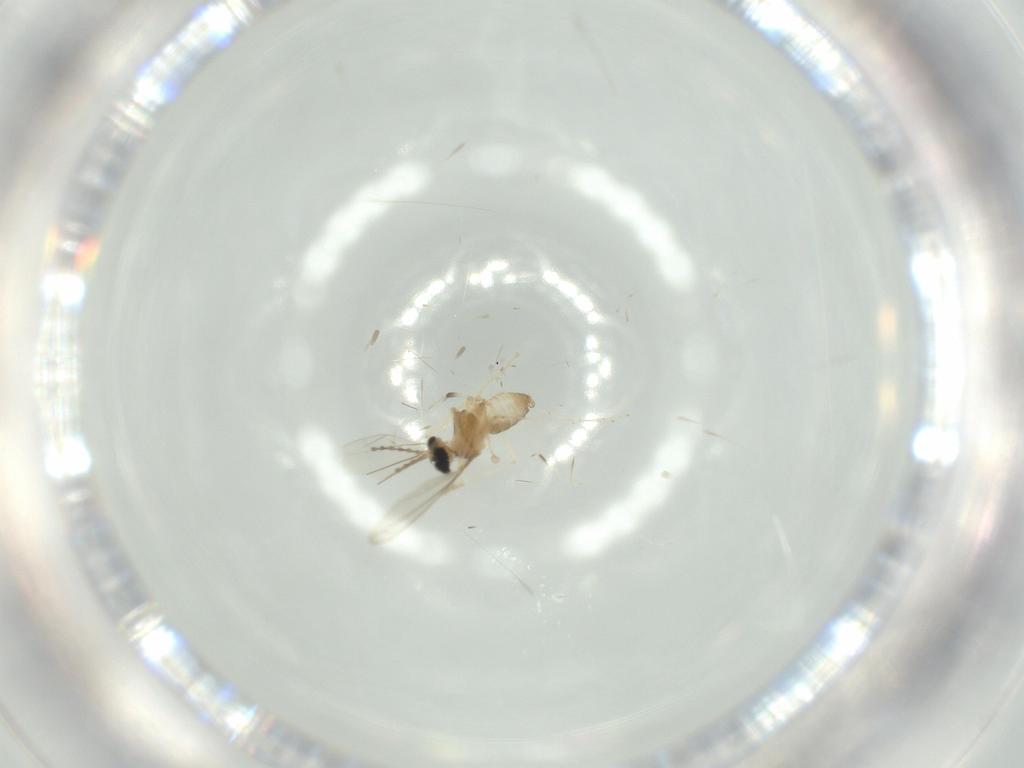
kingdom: Animalia
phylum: Arthropoda
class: Insecta
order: Diptera
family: Cecidomyiidae
